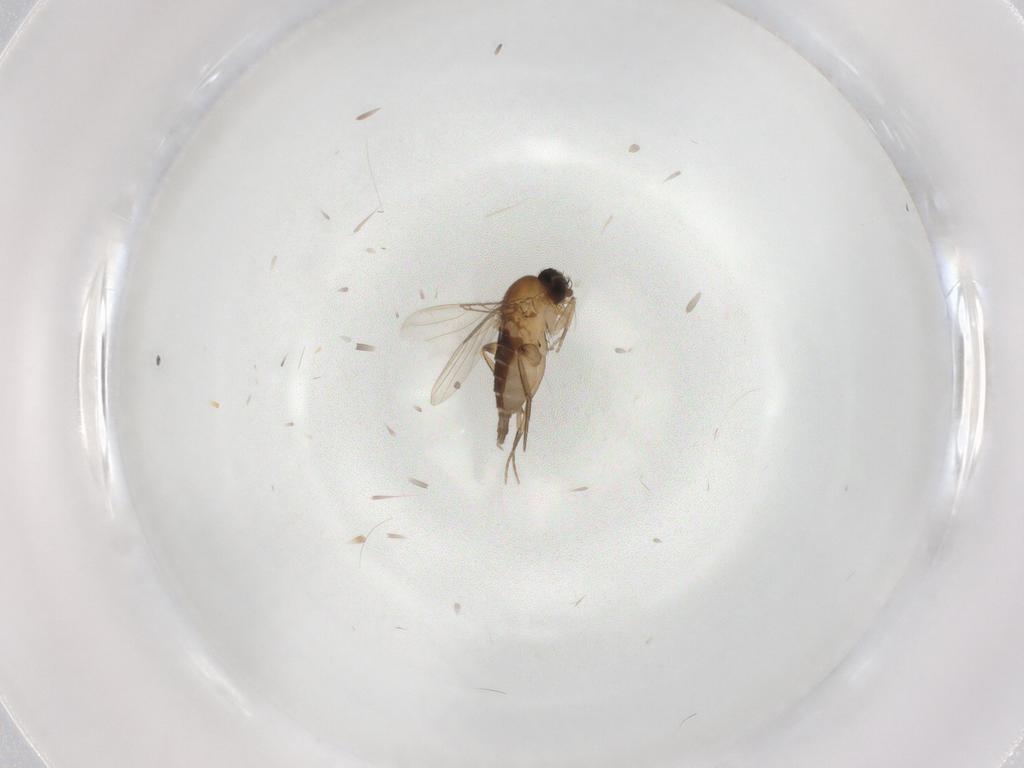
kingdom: Animalia
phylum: Arthropoda
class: Insecta
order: Diptera
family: Phoridae
